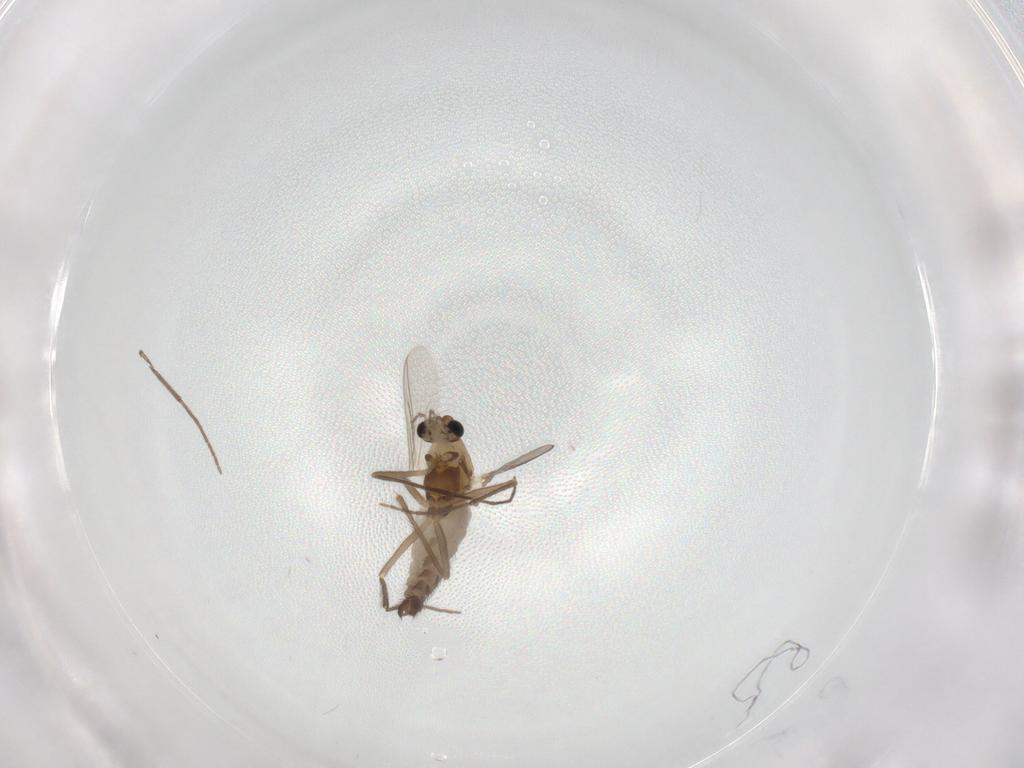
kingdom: Animalia
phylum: Arthropoda
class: Insecta
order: Diptera
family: Chironomidae
